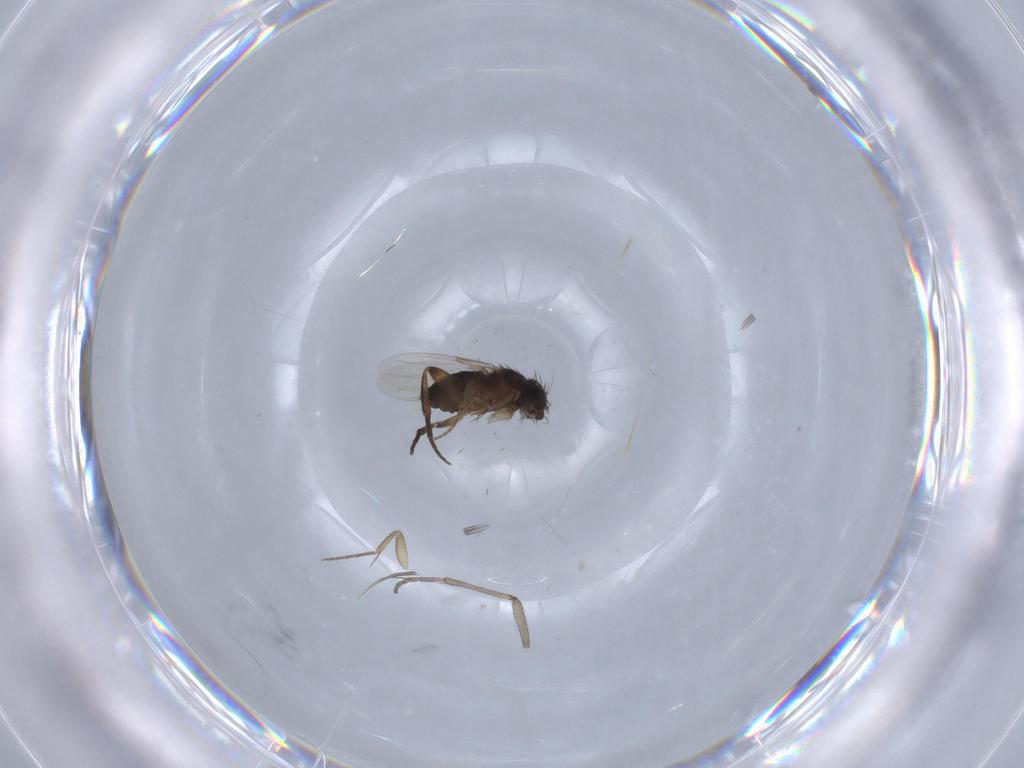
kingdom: Animalia
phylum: Arthropoda
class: Insecta
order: Diptera
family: Phoridae
